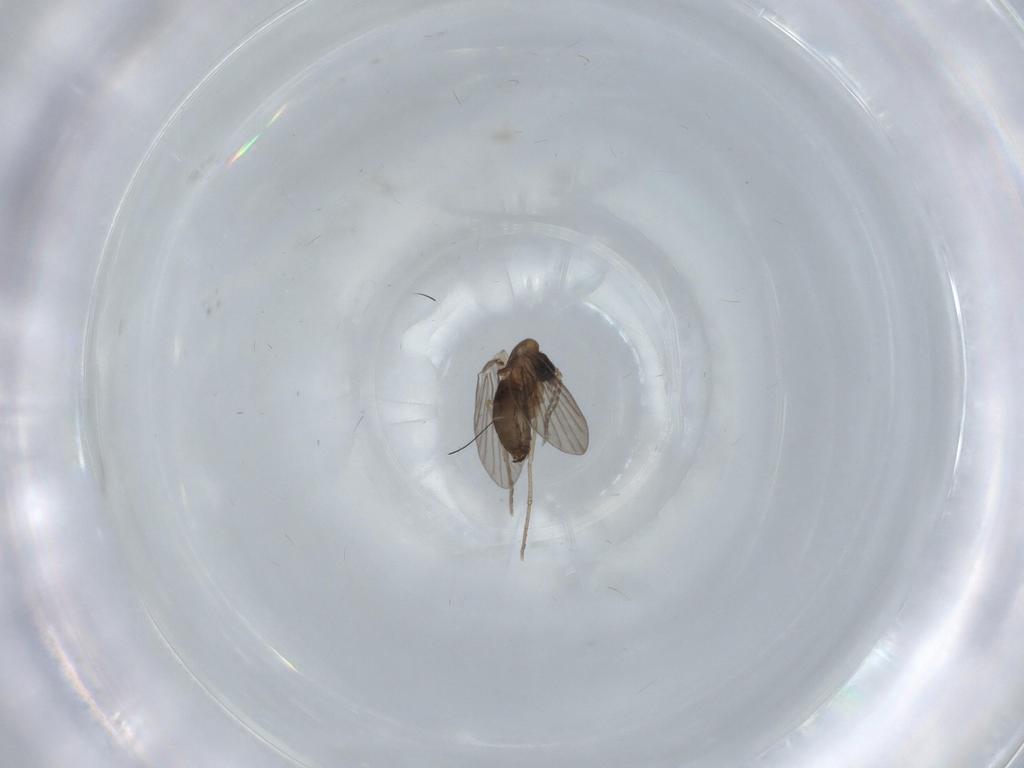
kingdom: Animalia
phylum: Arthropoda
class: Insecta
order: Diptera
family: Psychodidae
